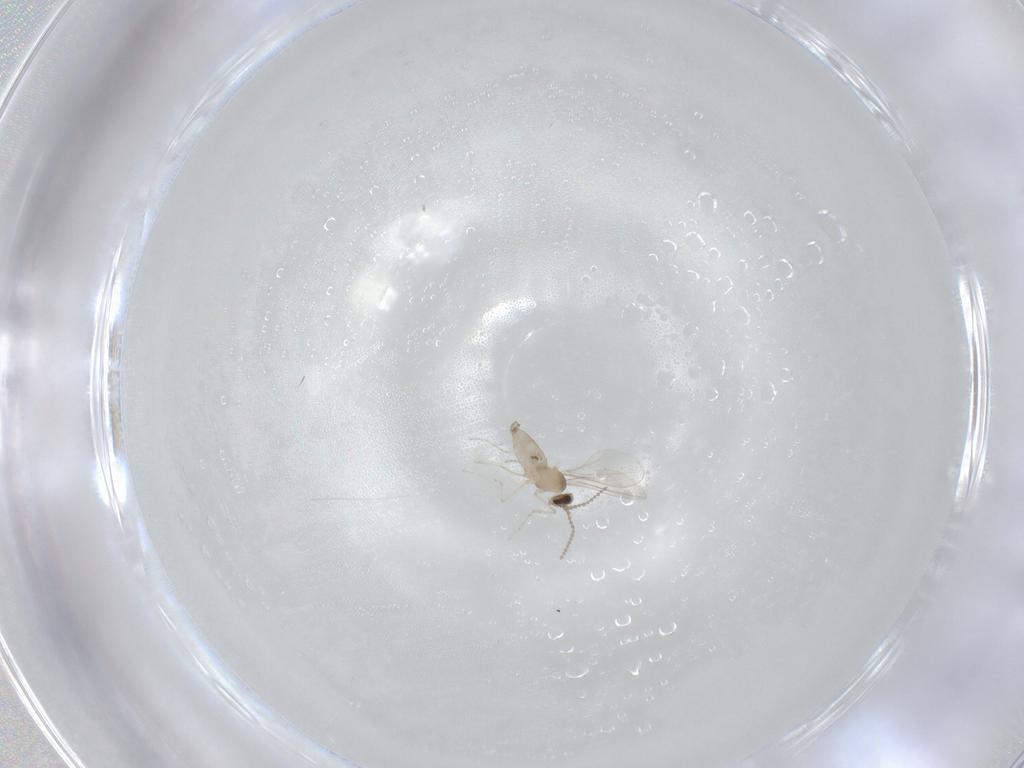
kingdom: Animalia
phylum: Arthropoda
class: Insecta
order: Diptera
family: Cecidomyiidae
